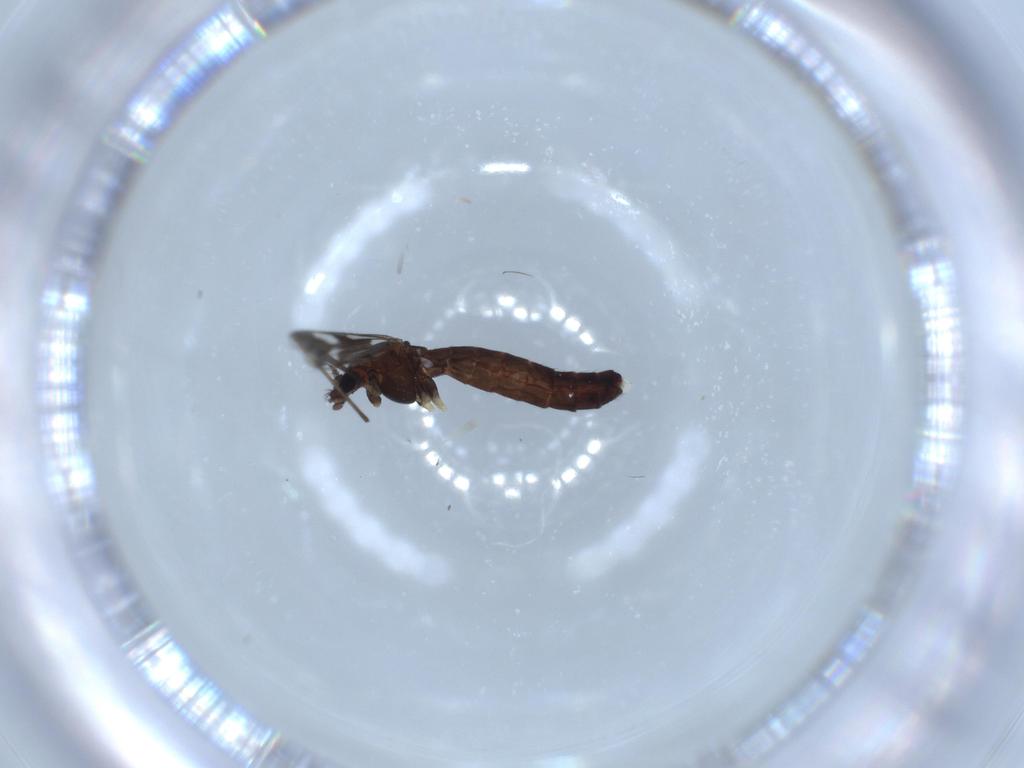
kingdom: Animalia
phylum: Arthropoda
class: Insecta
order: Diptera
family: Chironomidae
